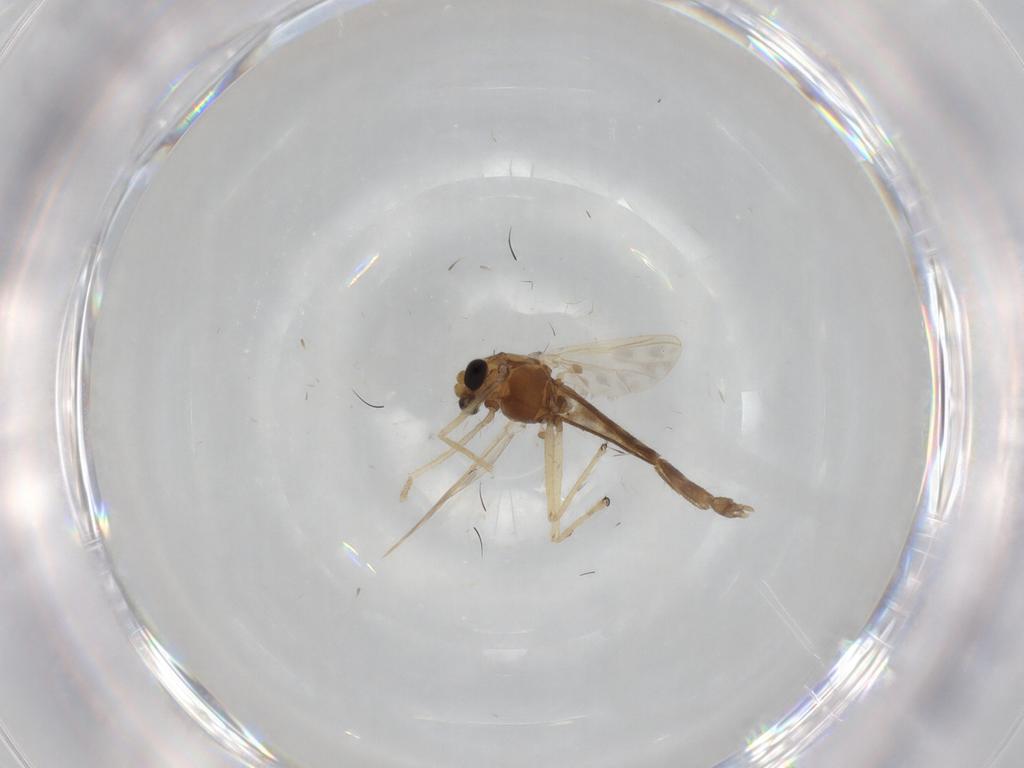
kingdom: Animalia
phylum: Arthropoda
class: Insecta
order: Diptera
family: Chironomidae
